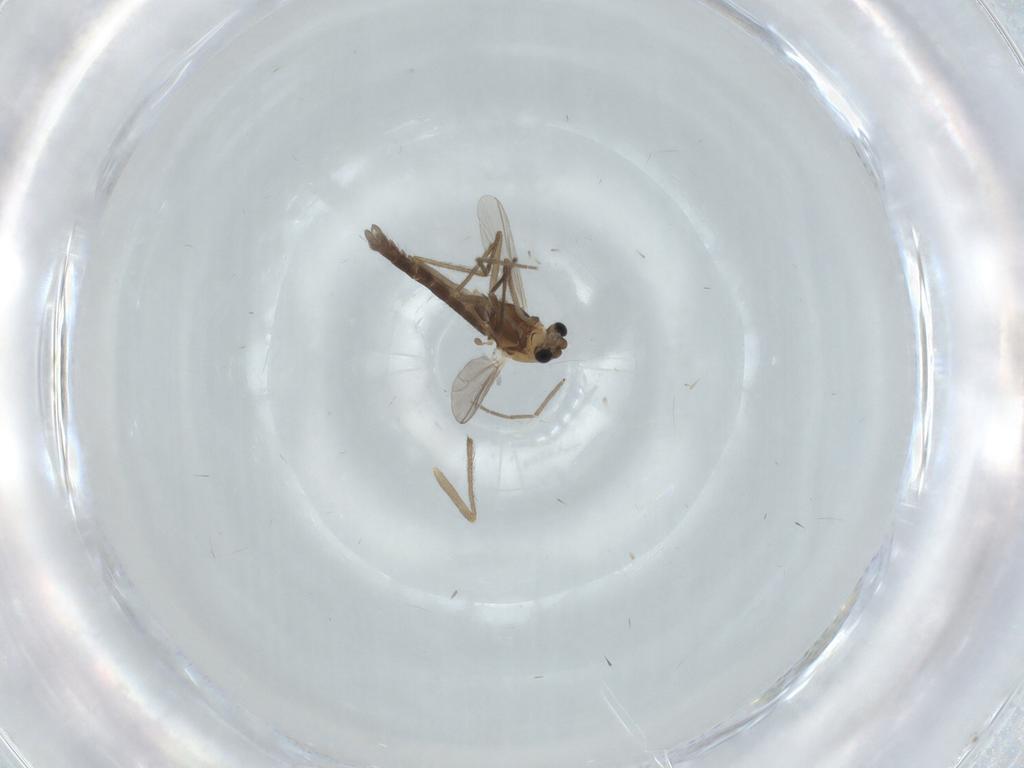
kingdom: Animalia
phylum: Arthropoda
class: Insecta
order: Diptera
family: Chironomidae
